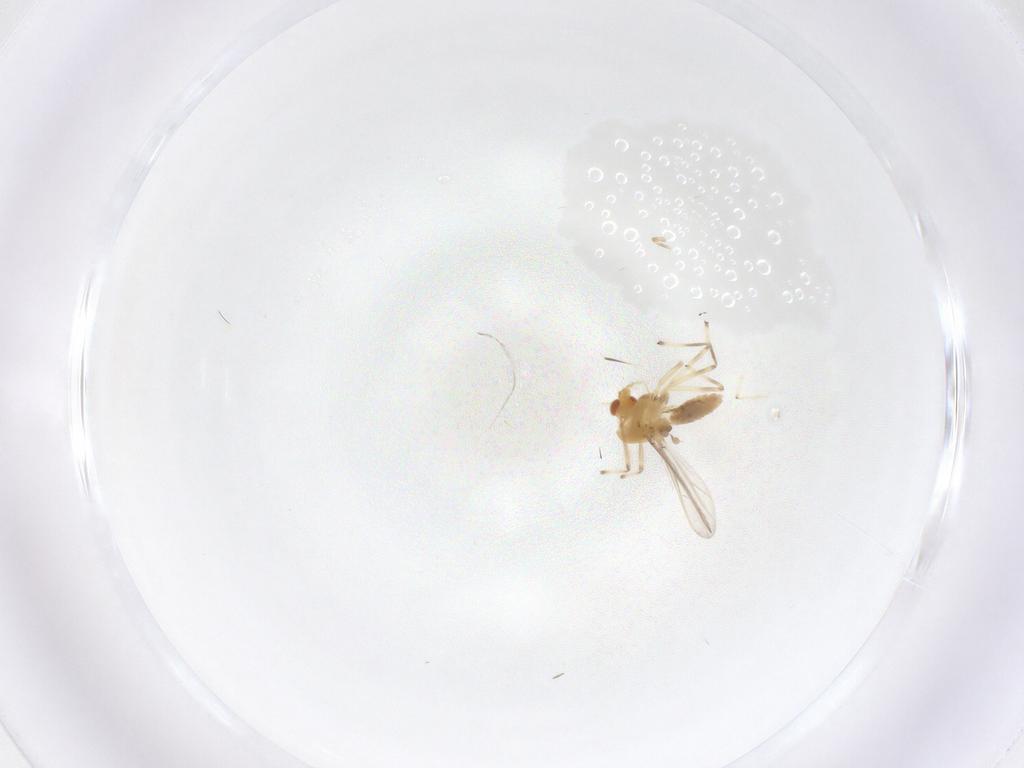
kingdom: Animalia
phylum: Arthropoda
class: Insecta
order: Diptera
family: Chironomidae
